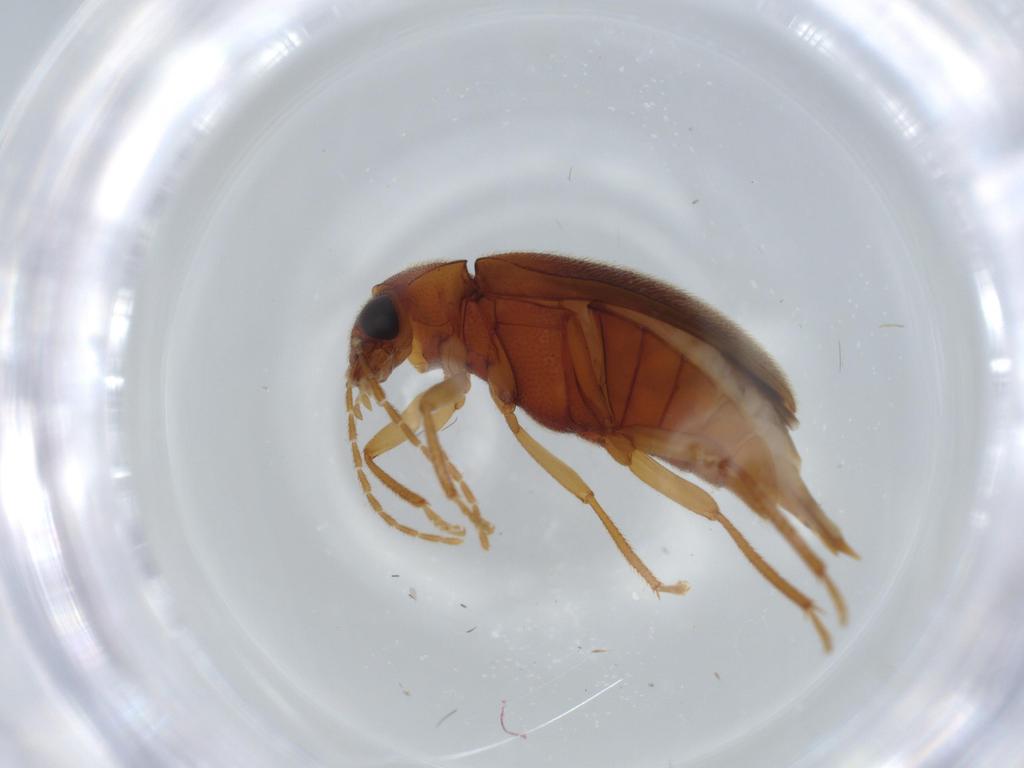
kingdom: Animalia
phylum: Arthropoda
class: Insecta
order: Coleoptera
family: Ptilodactylidae
